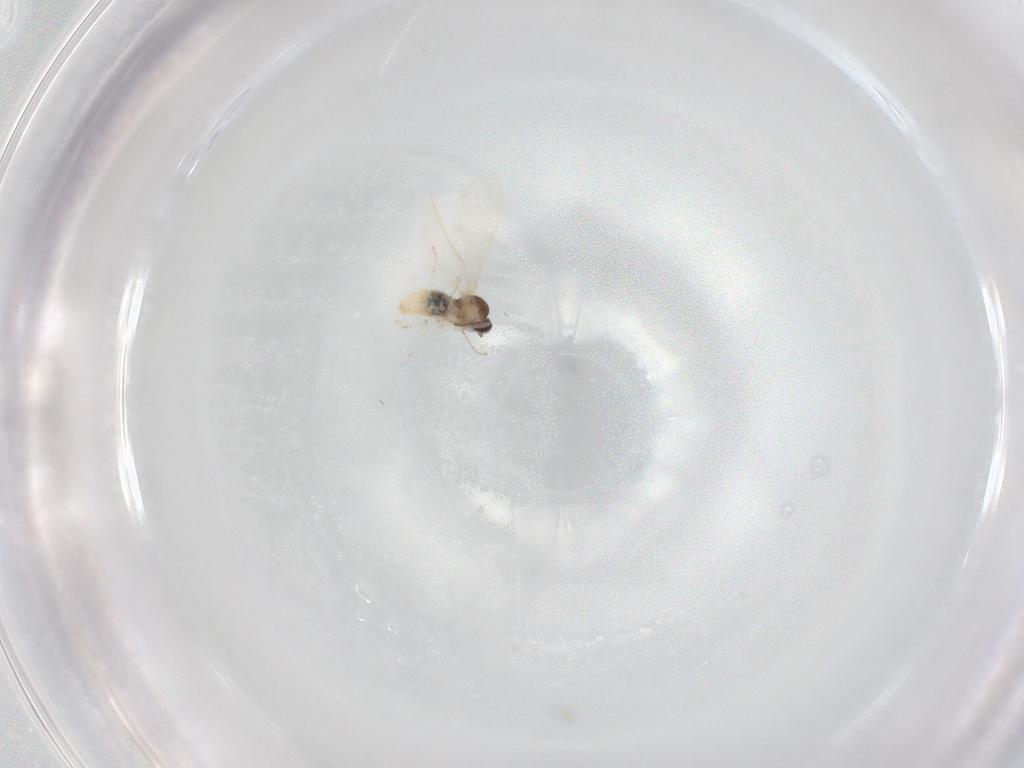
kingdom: Animalia
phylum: Arthropoda
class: Insecta
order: Diptera
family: Cecidomyiidae
